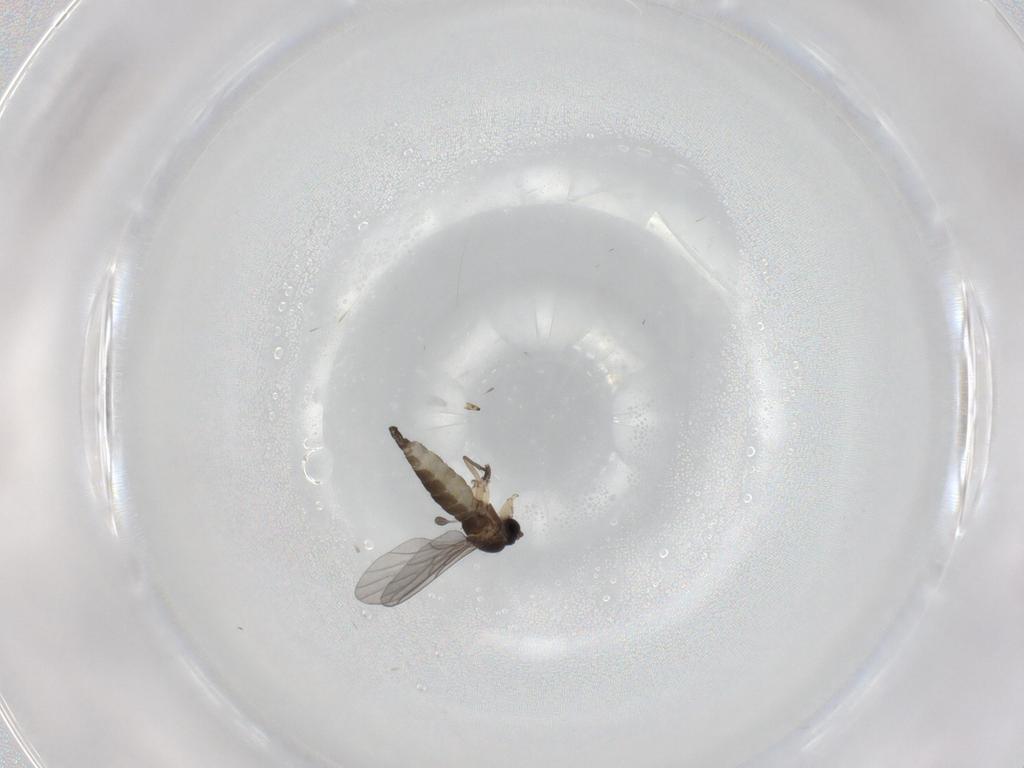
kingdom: Animalia
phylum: Arthropoda
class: Insecta
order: Diptera
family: Sciaridae
